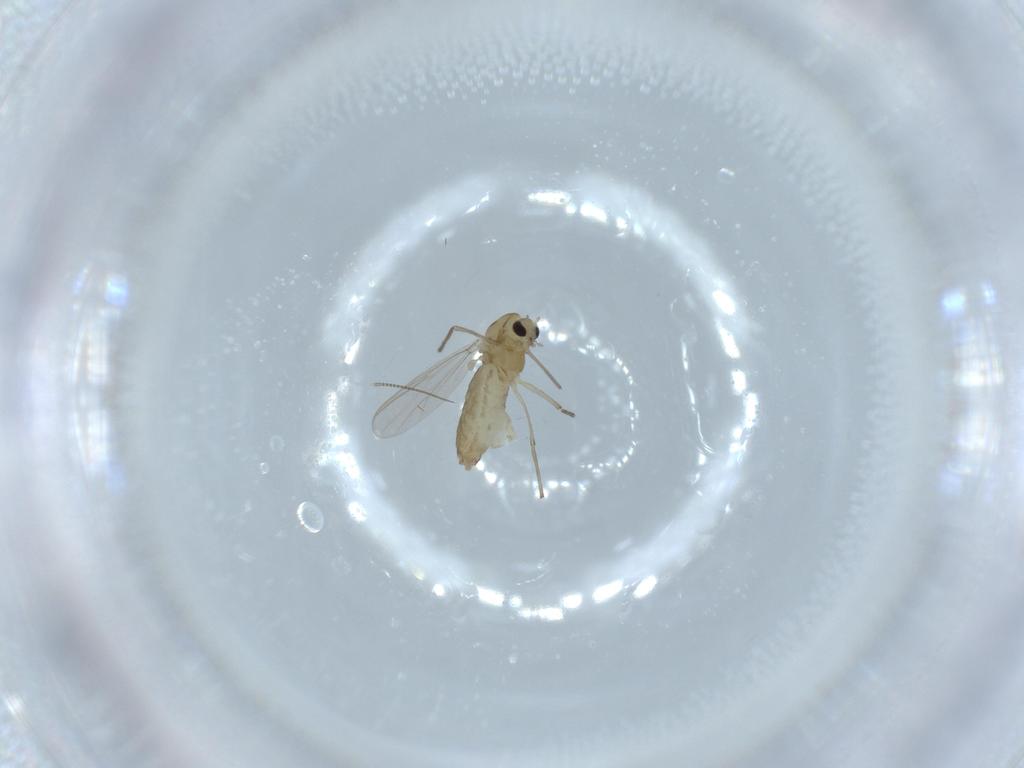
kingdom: Animalia
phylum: Arthropoda
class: Insecta
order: Diptera
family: Chironomidae
